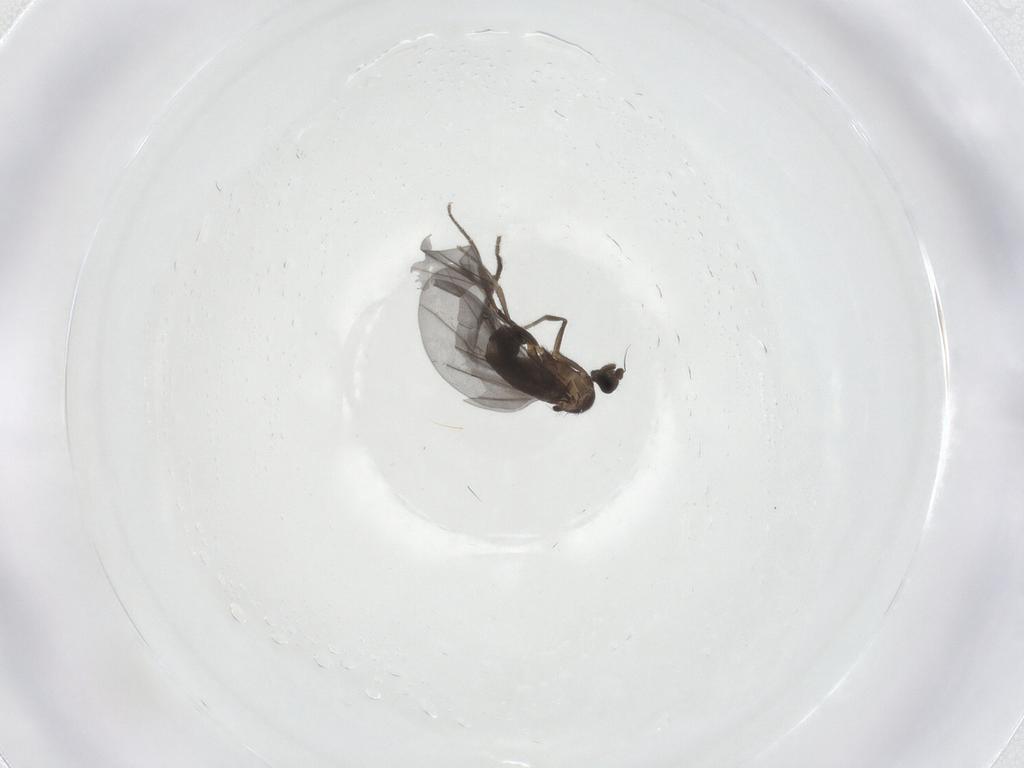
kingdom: Animalia
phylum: Arthropoda
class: Insecta
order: Diptera
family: Phoridae
